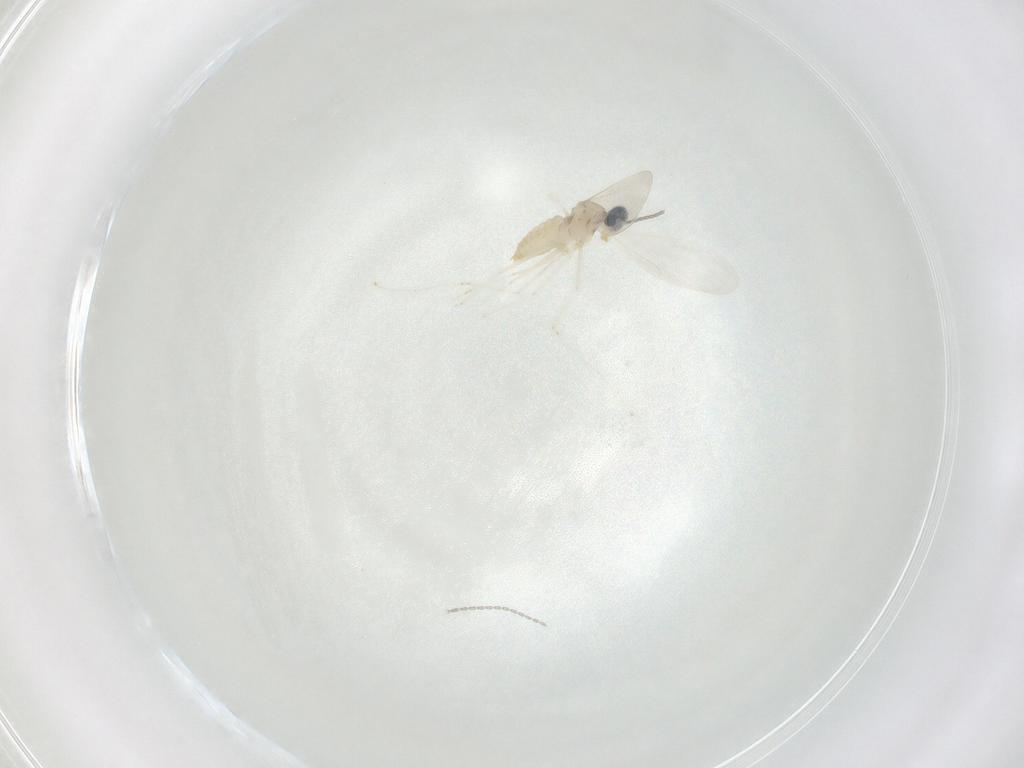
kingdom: Animalia
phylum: Arthropoda
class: Insecta
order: Diptera
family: Cecidomyiidae
